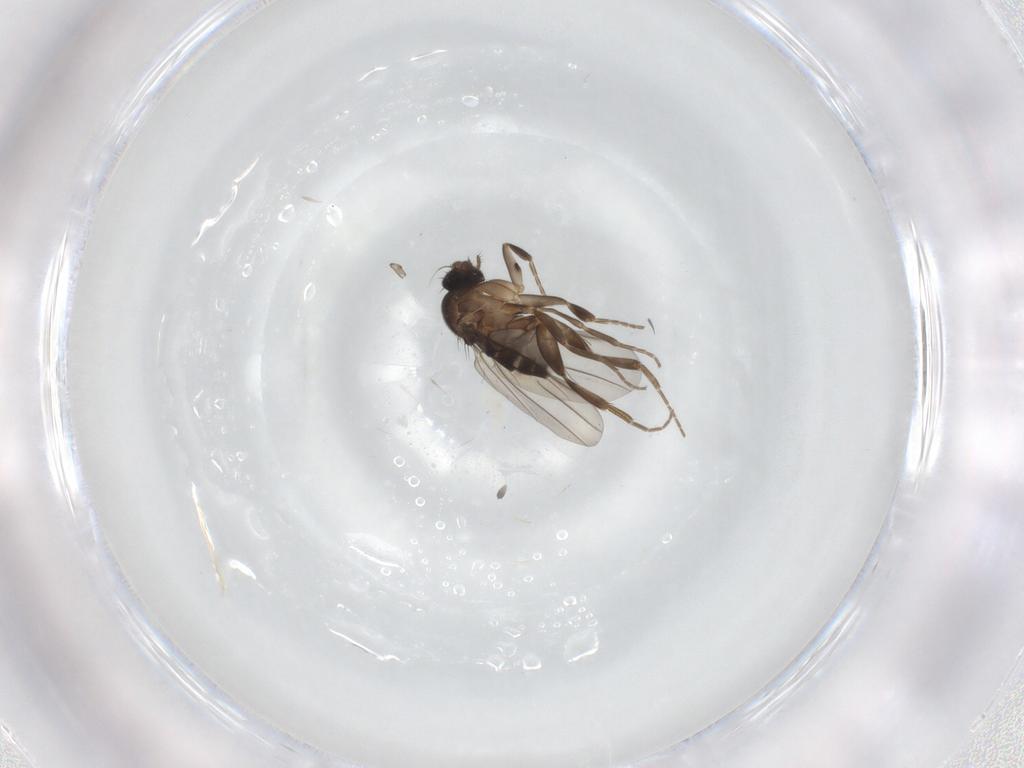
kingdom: Animalia
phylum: Arthropoda
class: Insecta
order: Diptera
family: Phoridae
